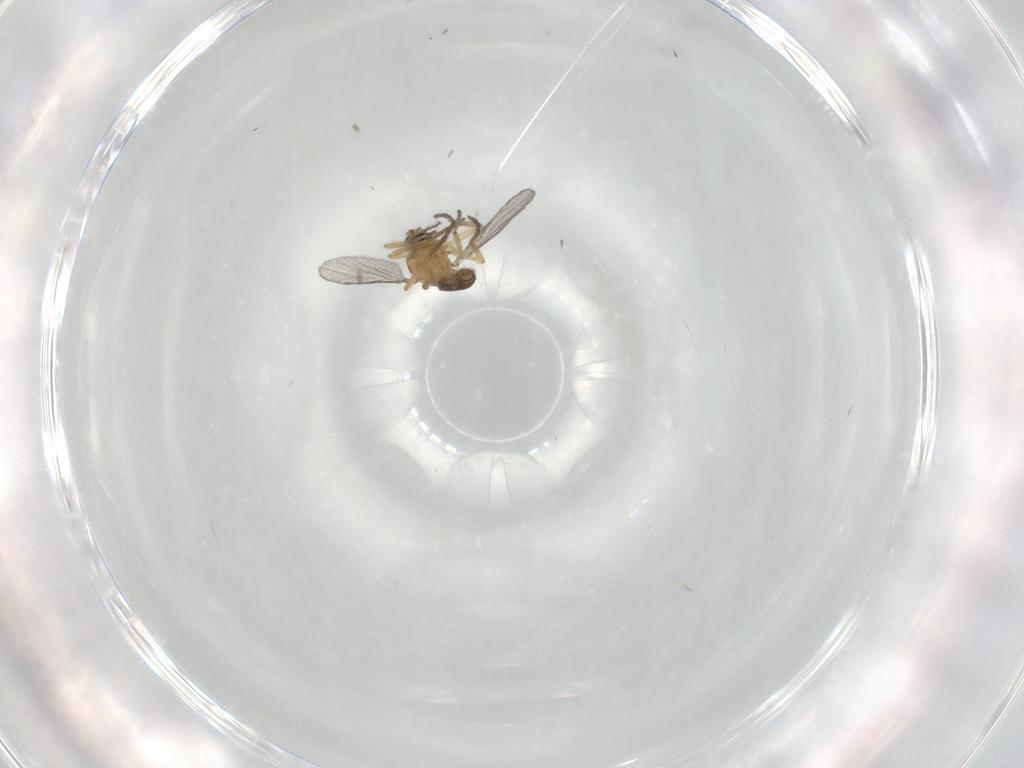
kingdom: Animalia
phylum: Arthropoda
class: Insecta
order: Diptera
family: Ceratopogonidae
